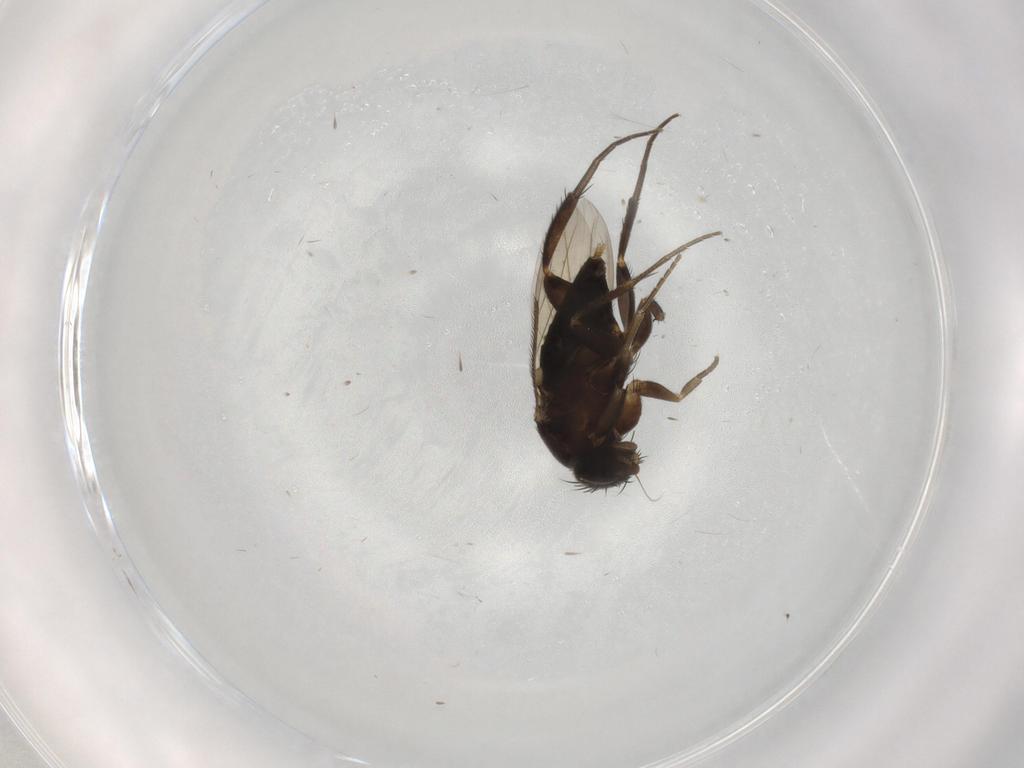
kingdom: Animalia
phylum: Arthropoda
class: Insecta
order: Diptera
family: Phoridae
